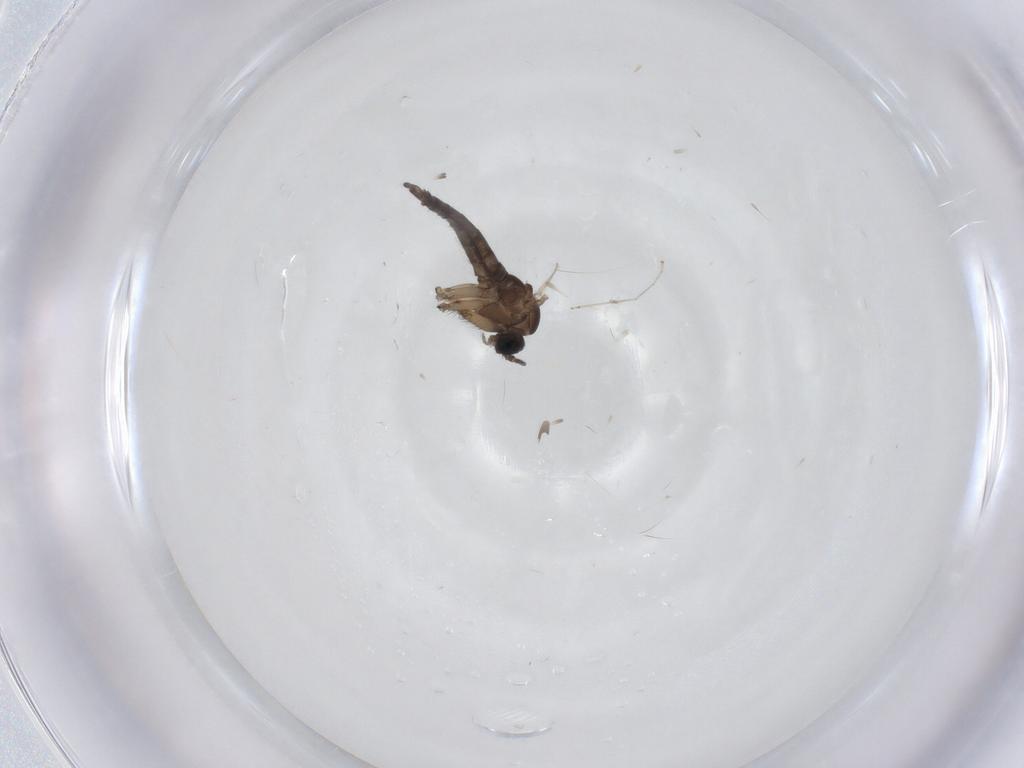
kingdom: Animalia
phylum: Arthropoda
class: Insecta
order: Diptera
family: Sciaridae
